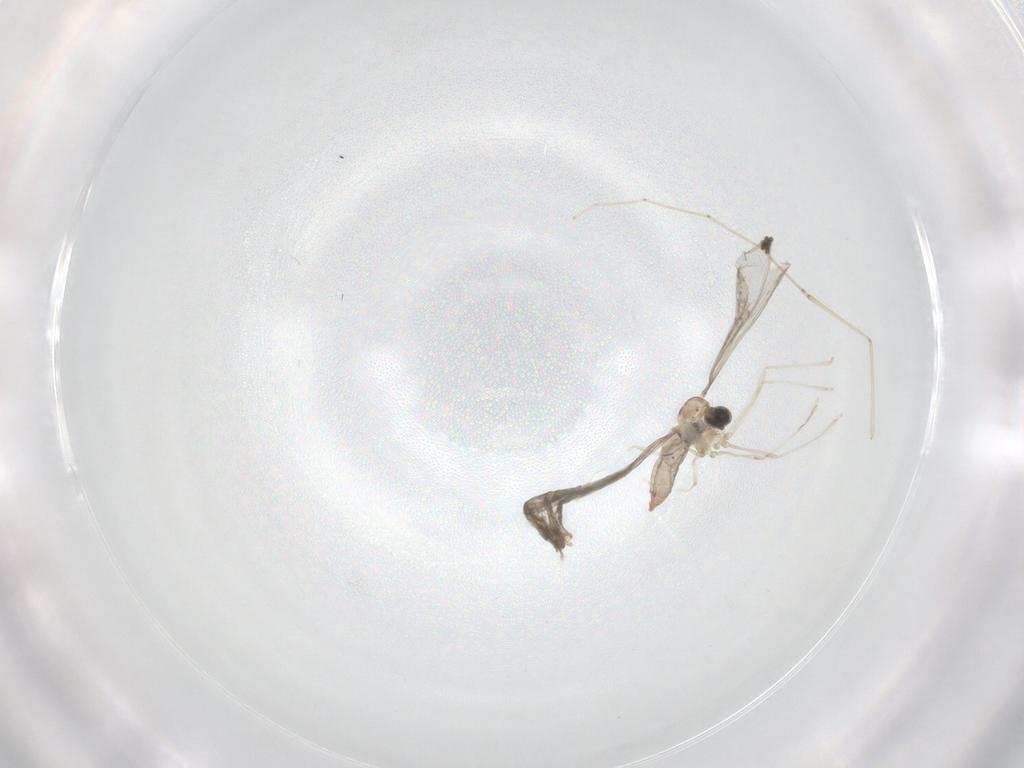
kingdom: Animalia
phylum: Arthropoda
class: Insecta
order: Diptera
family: Cecidomyiidae
